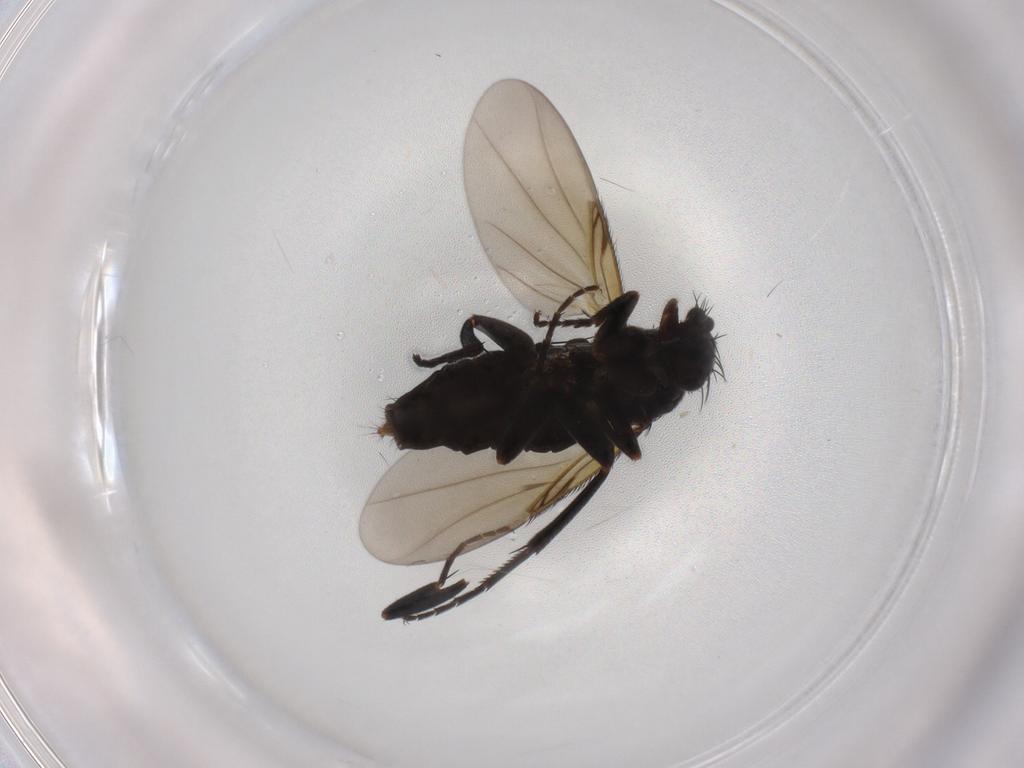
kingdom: Animalia
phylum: Arthropoda
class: Insecta
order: Diptera
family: Phoridae
